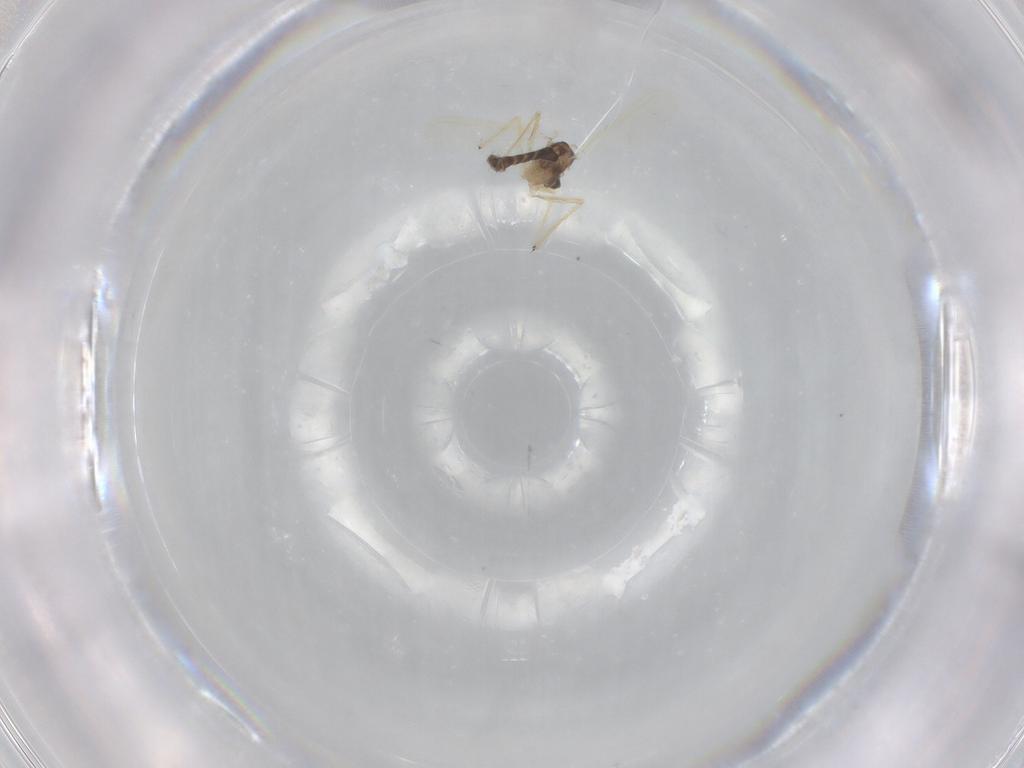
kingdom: Animalia
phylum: Arthropoda
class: Insecta
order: Diptera
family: Chironomidae
